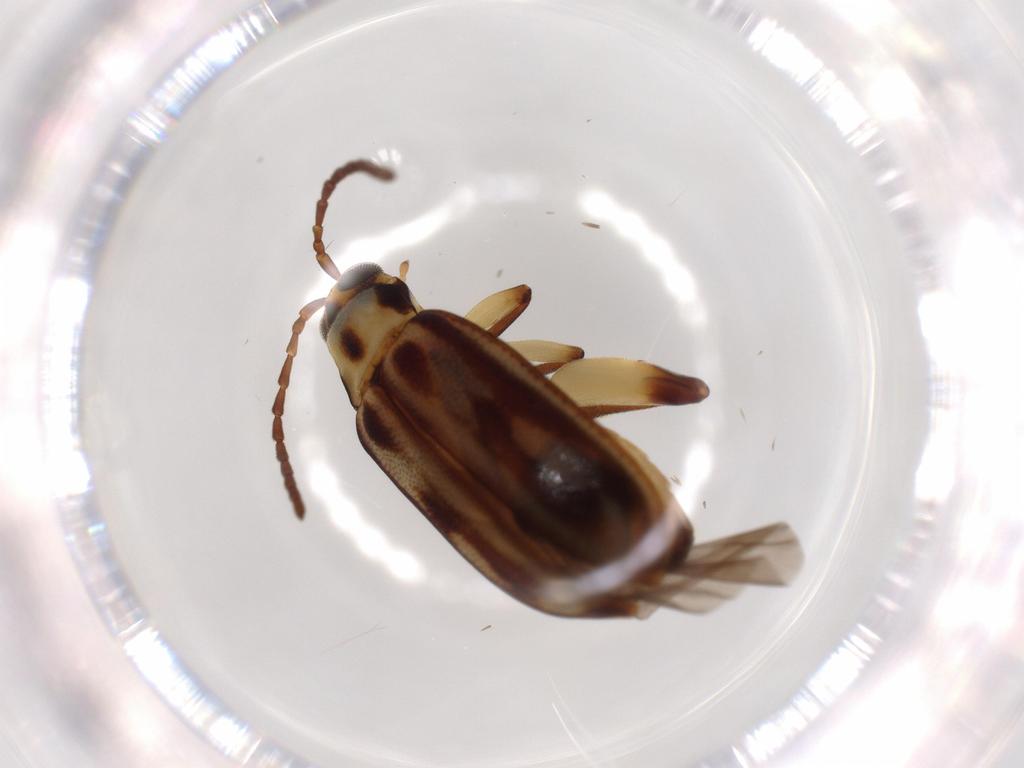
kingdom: Animalia
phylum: Arthropoda
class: Insecta
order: Coleoptera
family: Chrysomelidae
